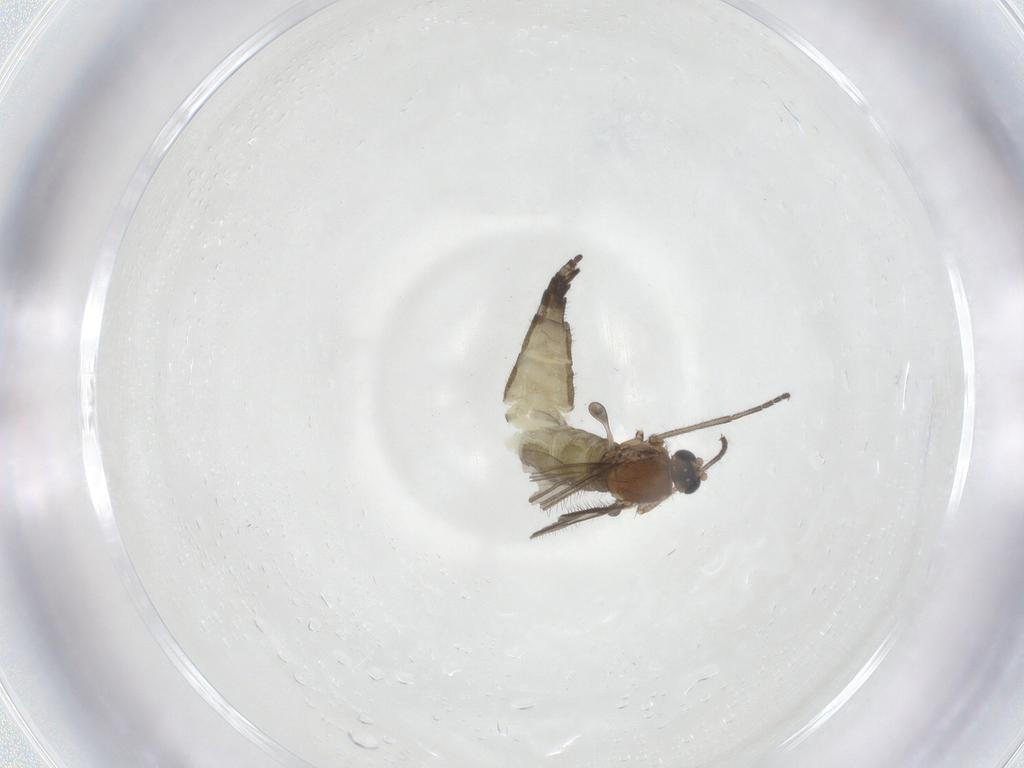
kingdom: Animalia
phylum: Arthropoda
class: Insecta
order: Diptera
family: Sciaridae
